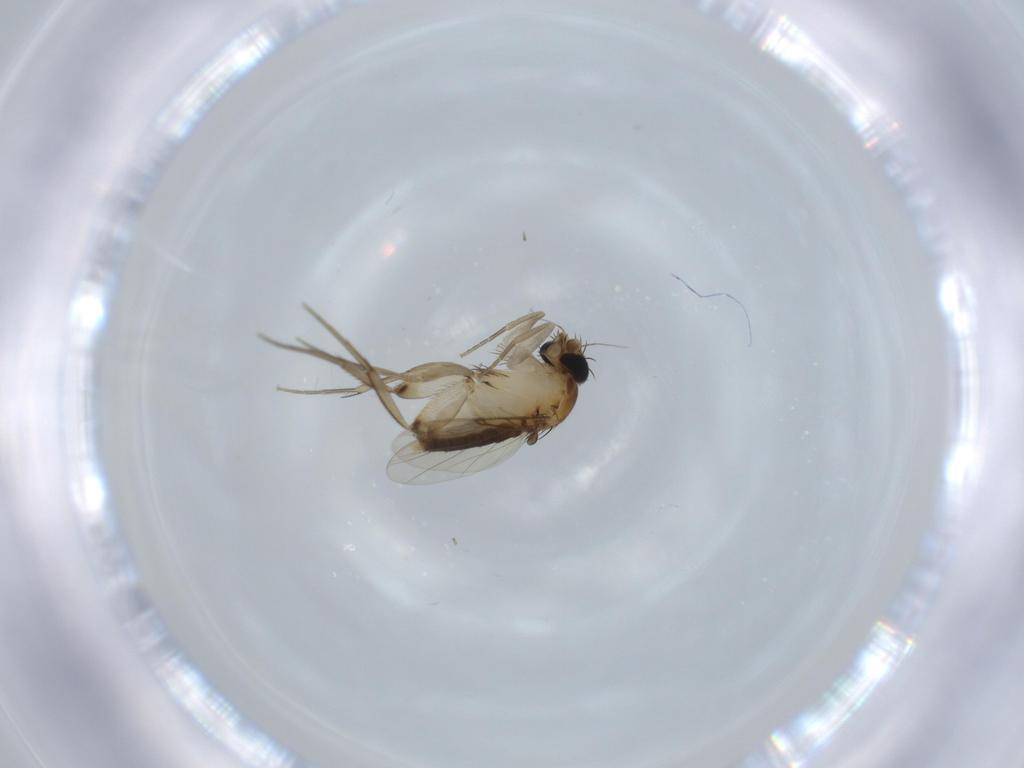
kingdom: Animalia
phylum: Arthropoda
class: Insecta
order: Diptera
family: Phoridae
